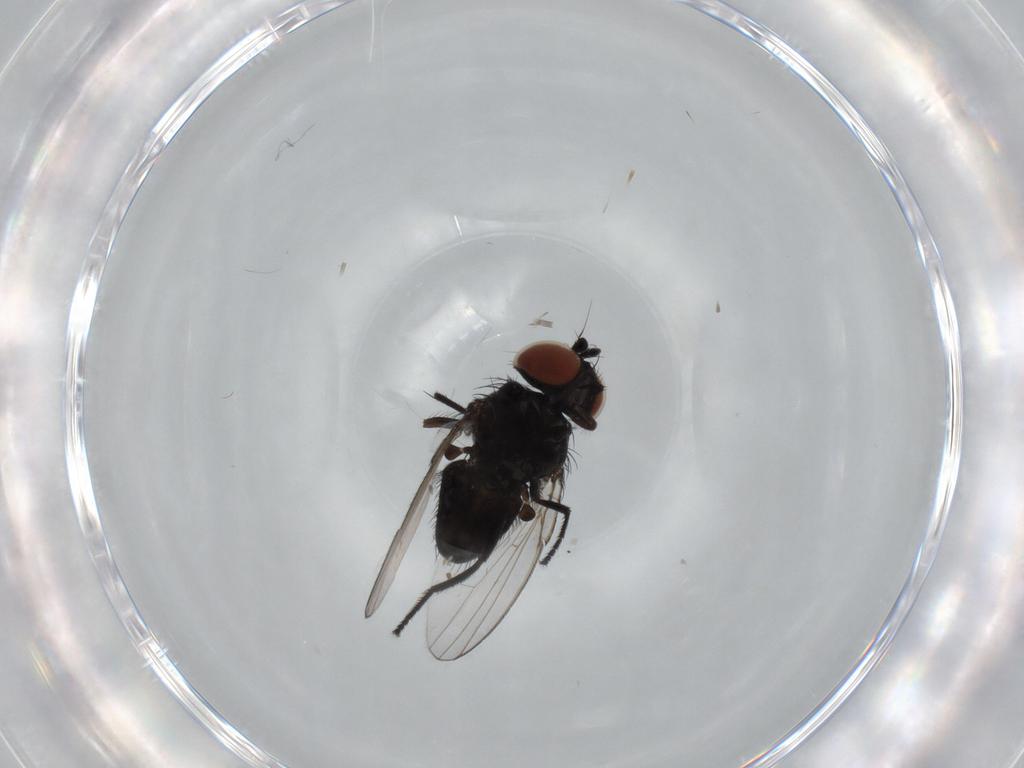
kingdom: Animalia
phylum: Arthropoda
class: Insecta
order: Diptera
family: Milichiidae
